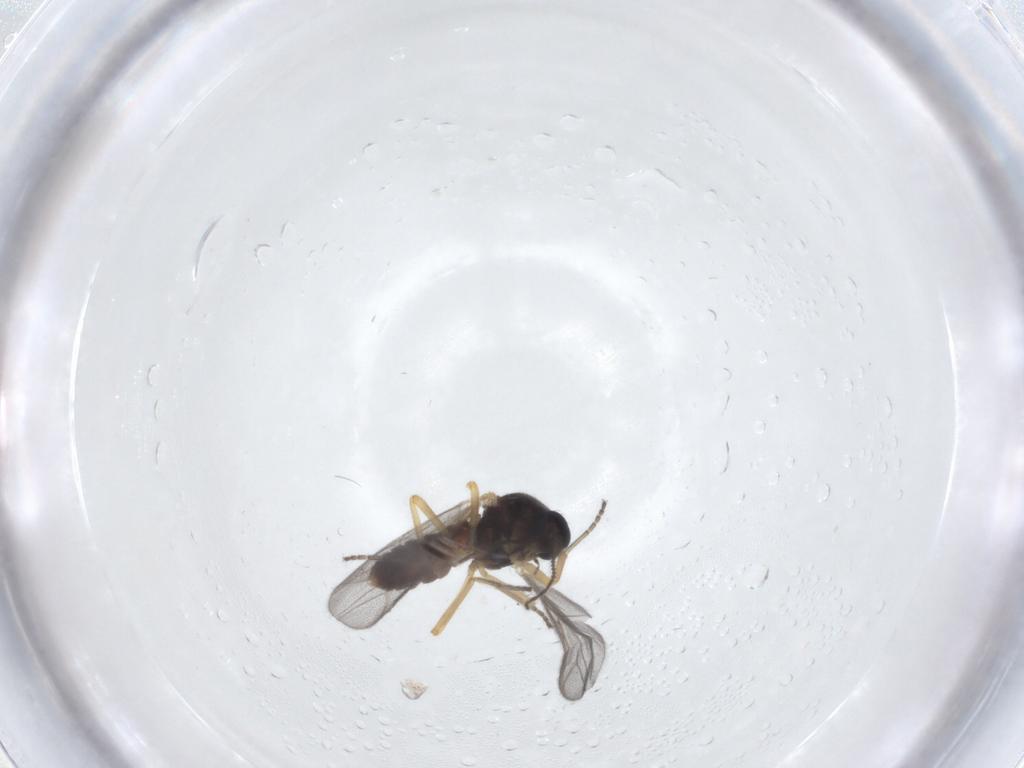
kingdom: Animalia
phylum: Arthropoda
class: Insecta
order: Diptera
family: Ceratopogonidae
